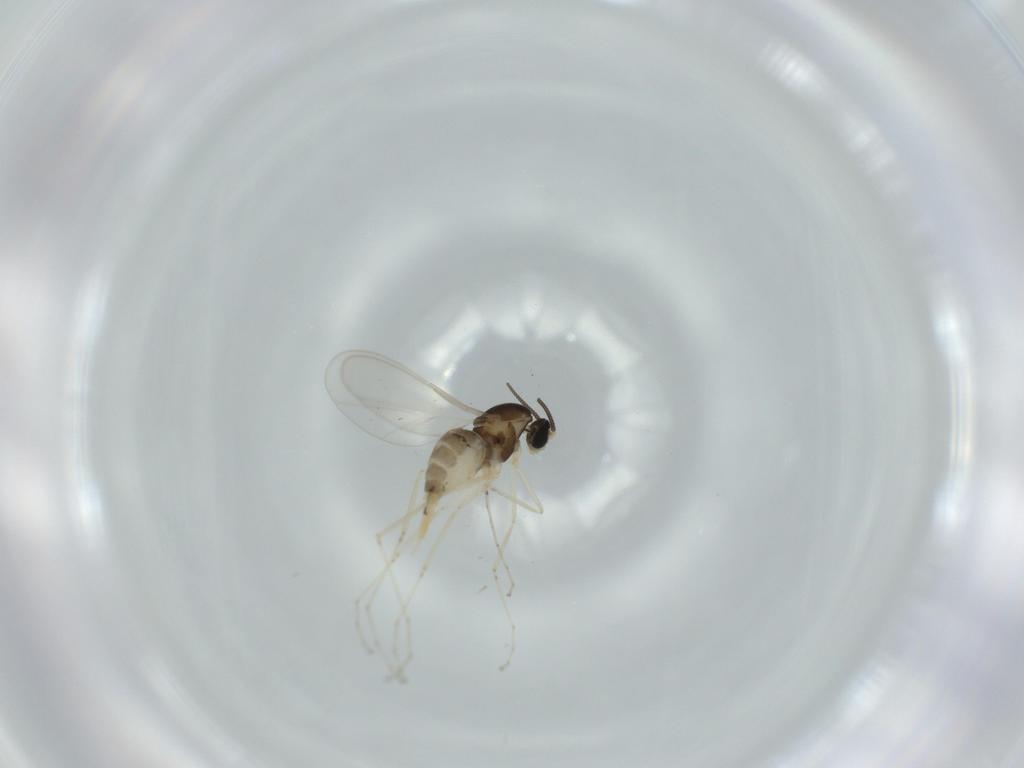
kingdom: Animalia
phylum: Arthropoda
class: Insecta
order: Diptera
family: Cecidomyiidae
